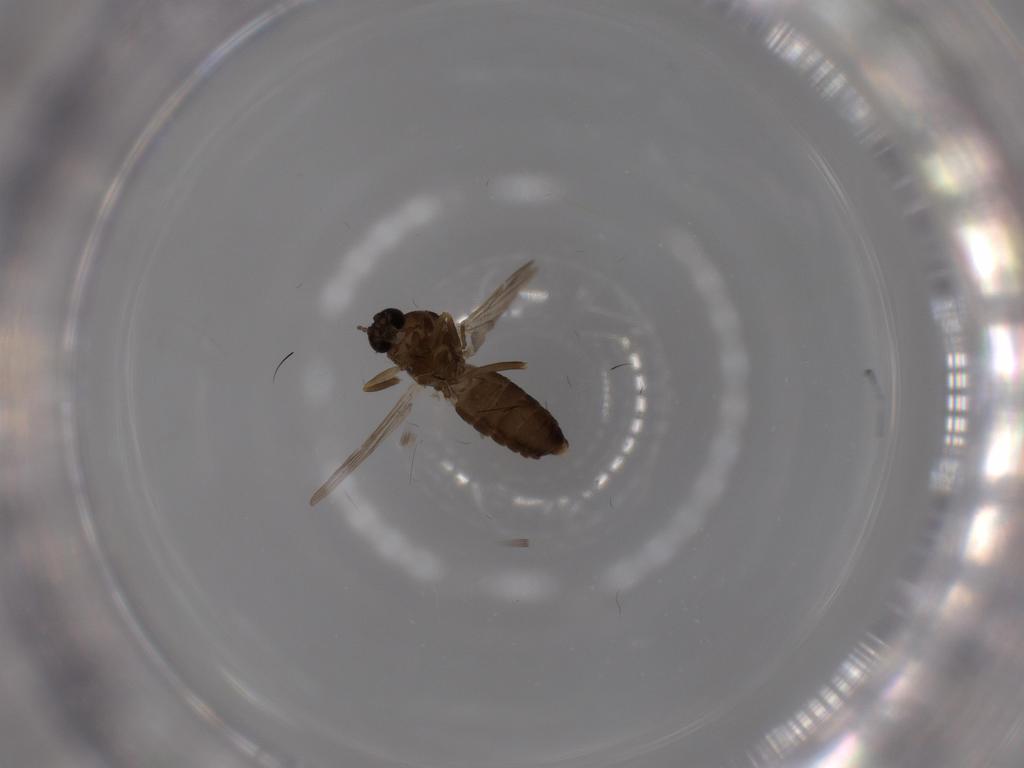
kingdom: Animalia
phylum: Arthropoda
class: Insecta
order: Diptera
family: Ceratopogonidae
